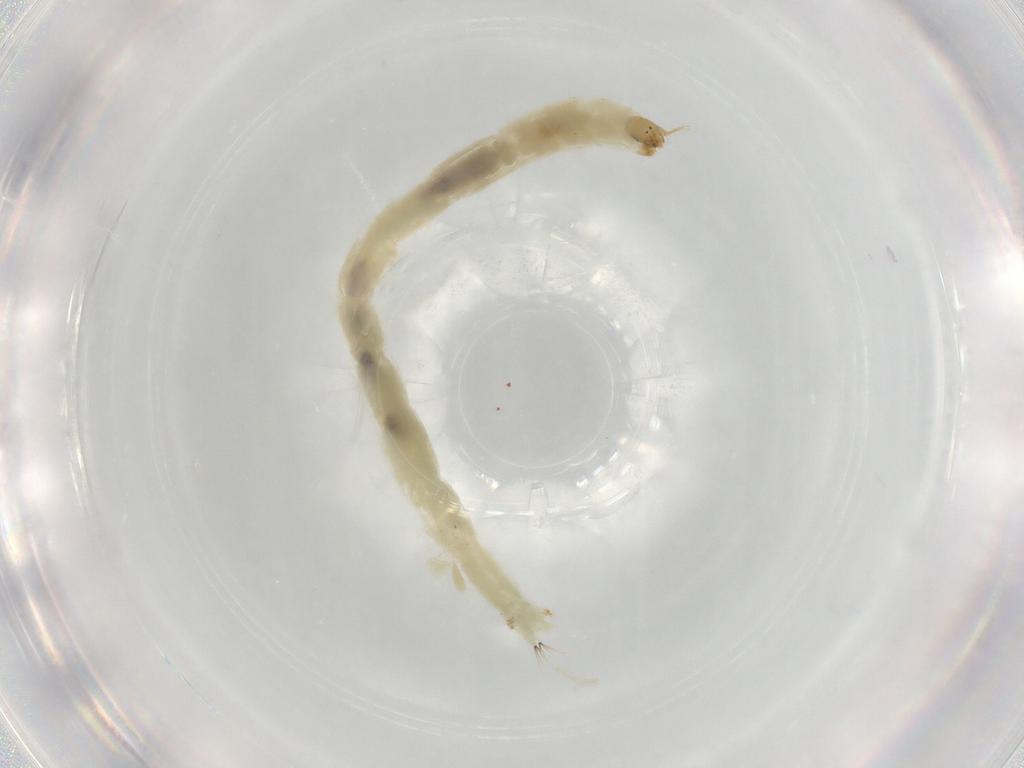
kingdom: Animalia
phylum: Arthropoda
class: Insecta
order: Diptera
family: Chironomidae
